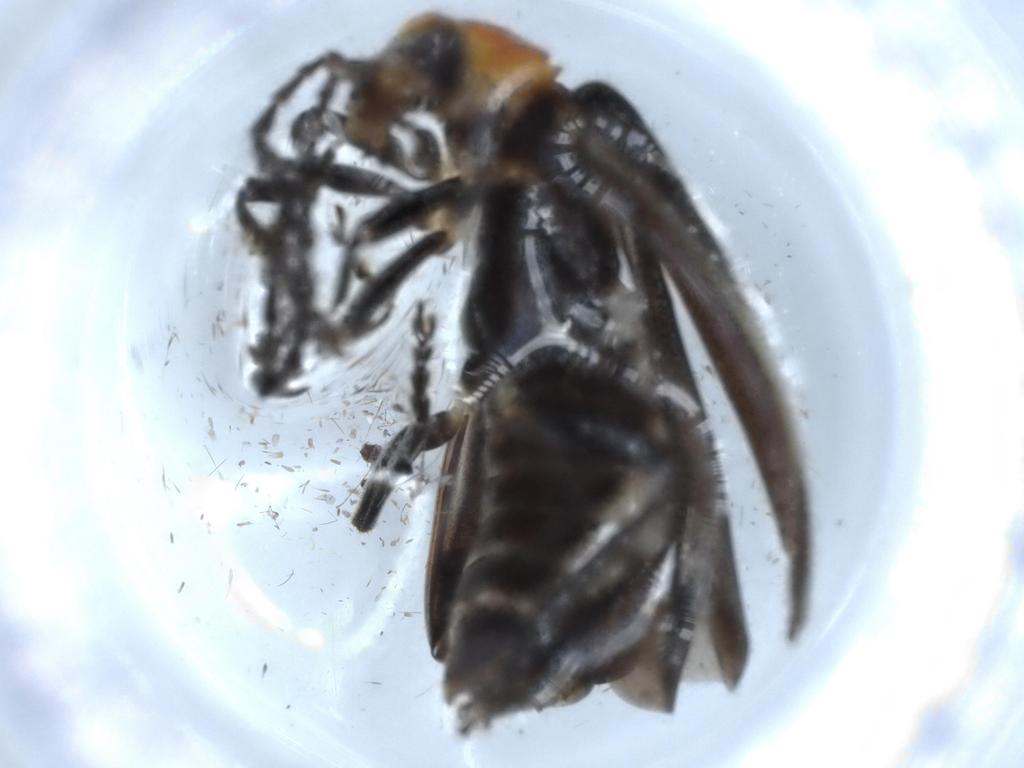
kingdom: Animalia
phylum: Arthropoda
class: Insecta
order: Coleoptera
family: Cantharidae
